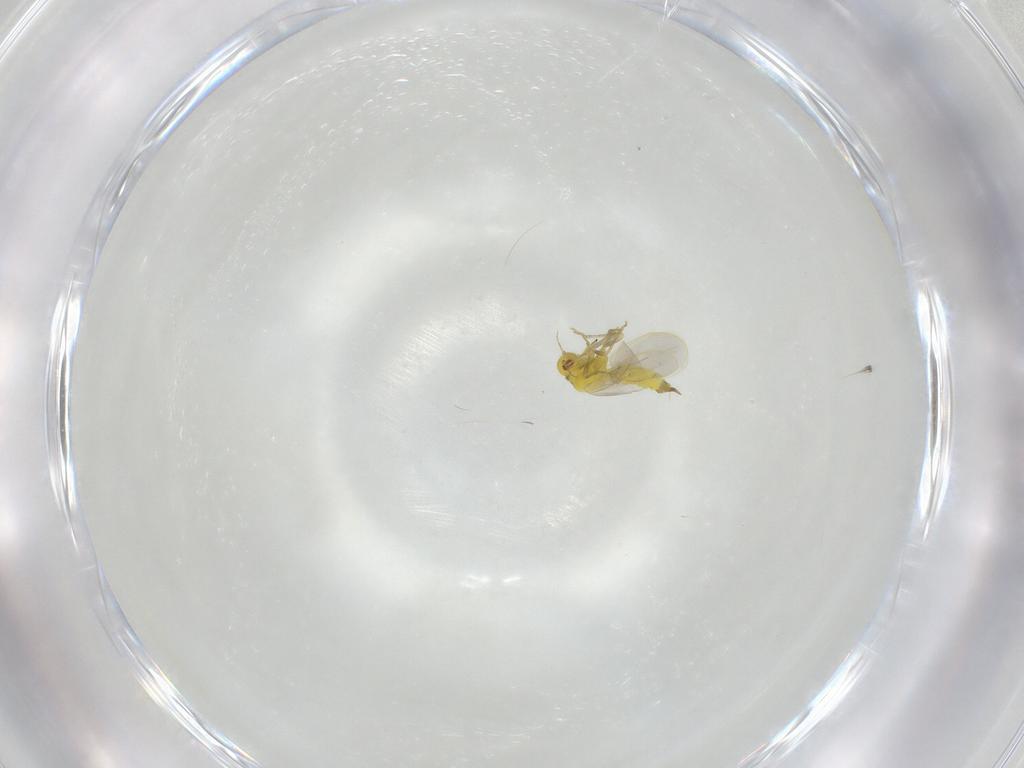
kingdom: Animalia
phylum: Arthropoda
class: Insecta
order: Hemiptera
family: Aleyrodidae
